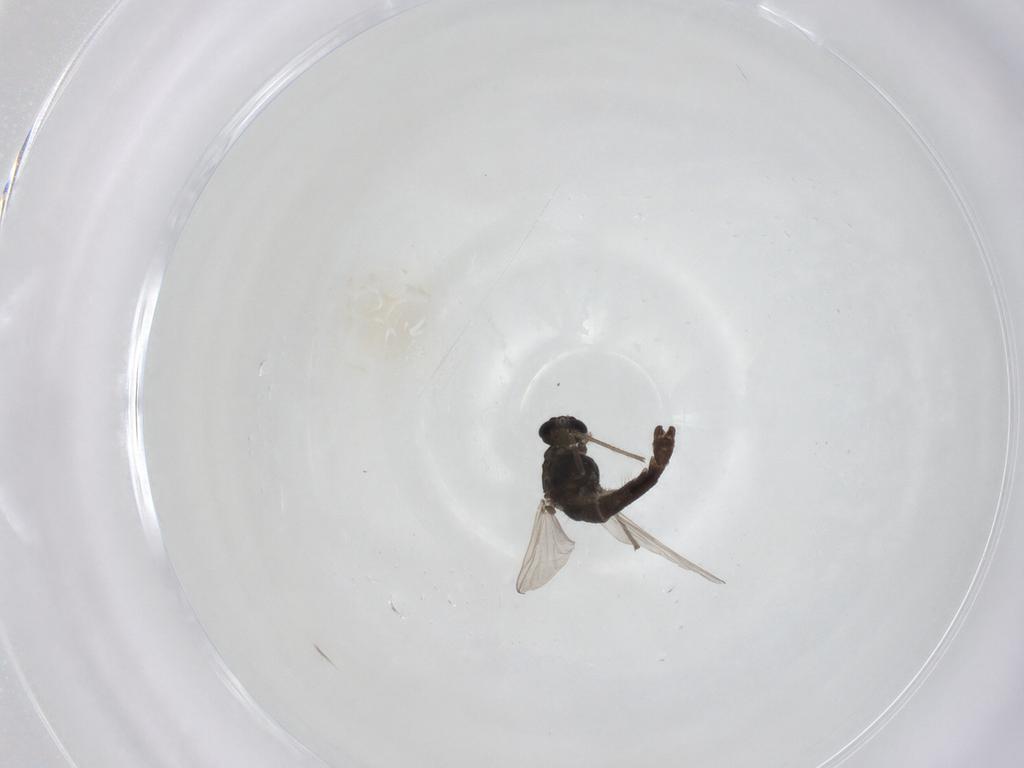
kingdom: Animalia
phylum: Arthropoda
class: Insecta
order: Diptera
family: Chironomidae
